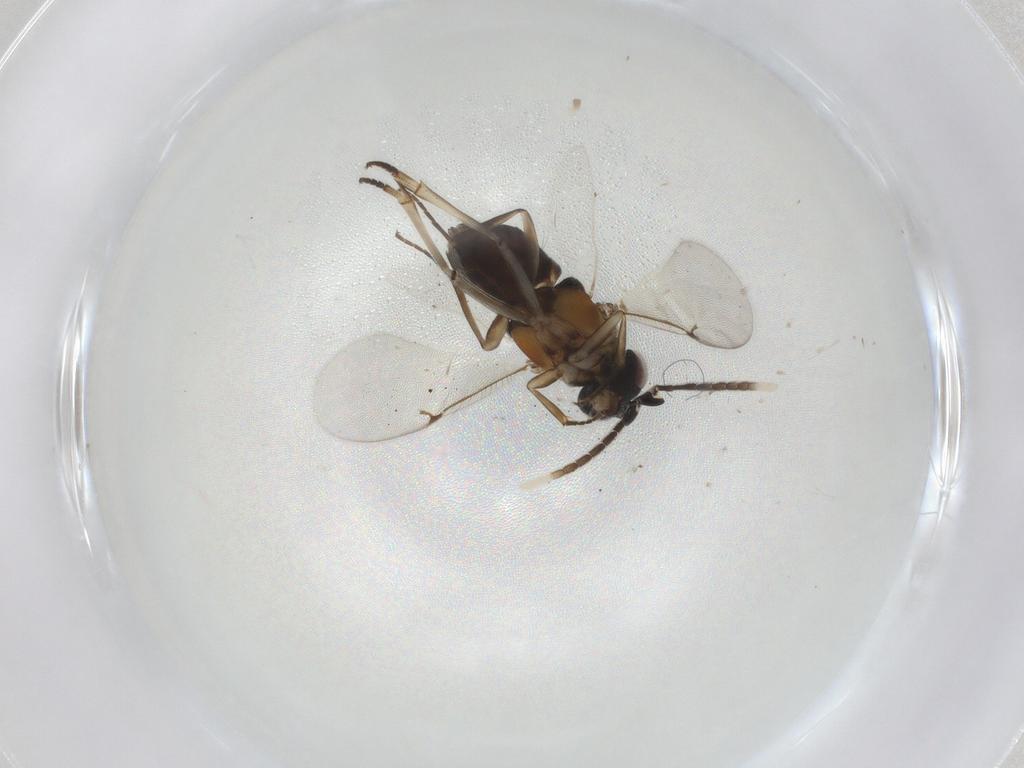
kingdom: Animalia
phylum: Arthropoda
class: Insecta
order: Hymenoptera
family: Encyrtidae
